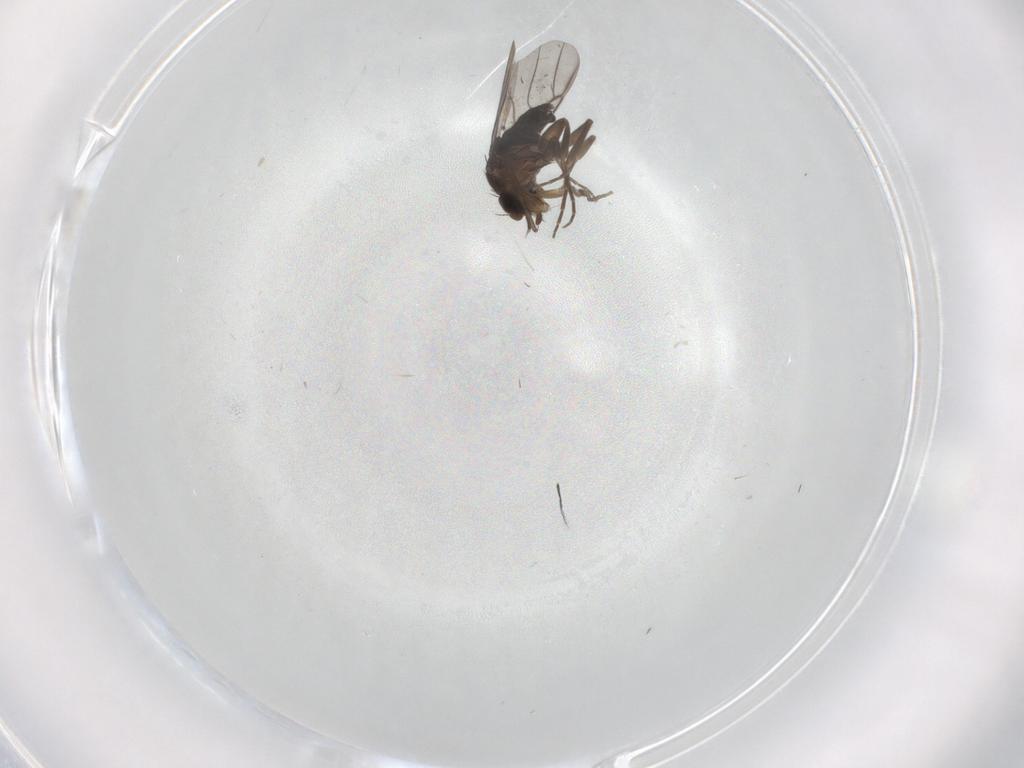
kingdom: Animalia
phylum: Arthropoda
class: Insecta
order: Diptera
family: Phoridae
